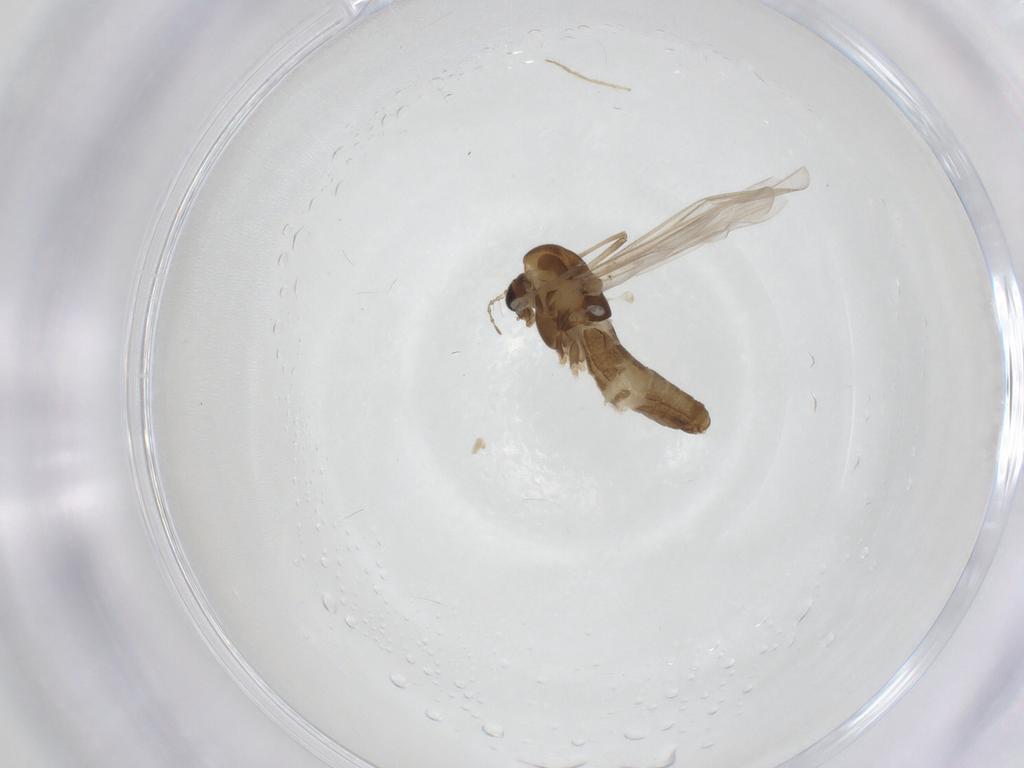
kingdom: Animalia
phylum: Arthropoda
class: Insecta
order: Diptera
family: Chironomidae
